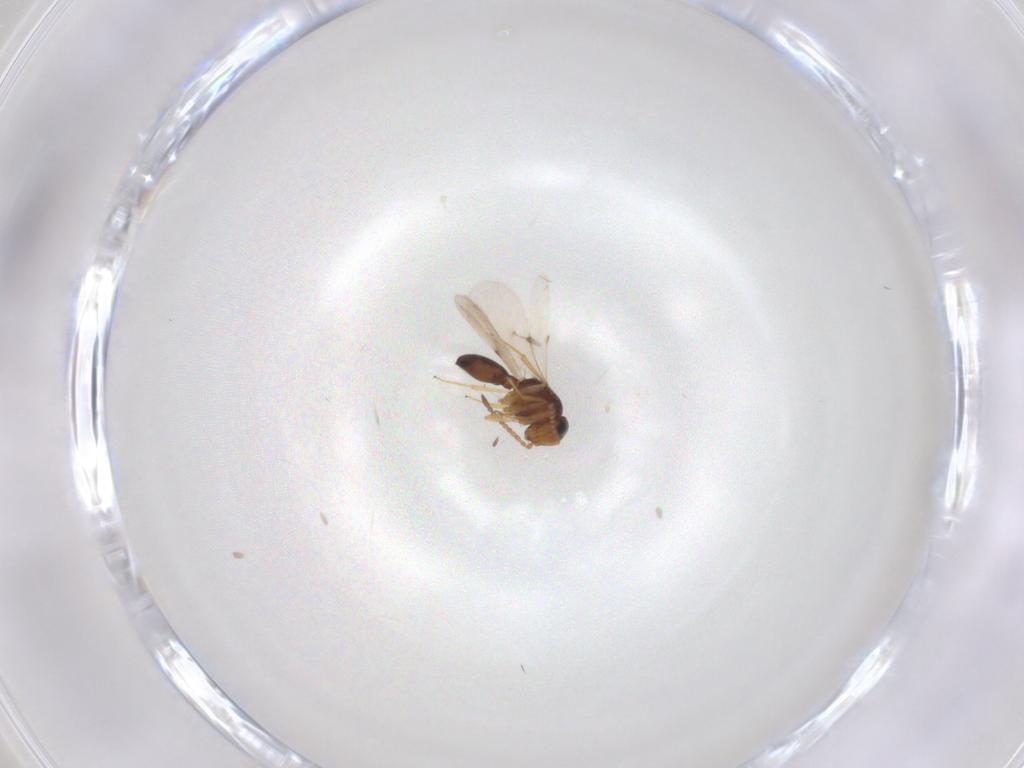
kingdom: Animalia
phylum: Arthropoda
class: Insecta
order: Hymenoptera
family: Scelionidae
